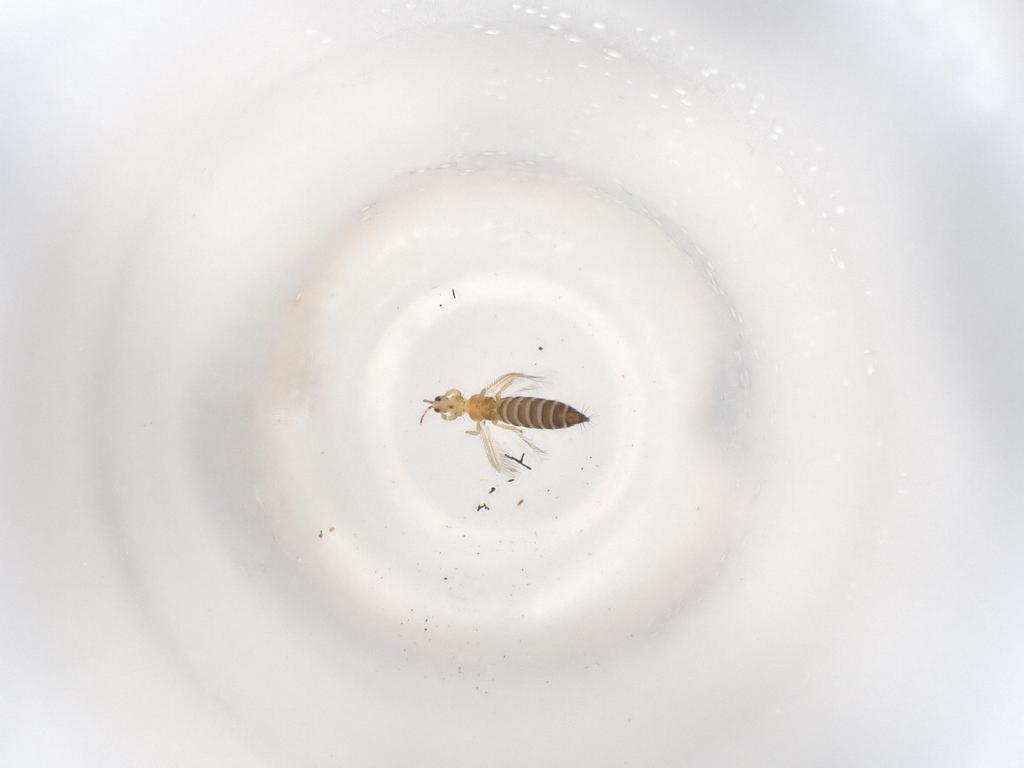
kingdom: Animalia
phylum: Arthropoda
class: Insecta
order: Thysanoptera
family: Thripidae
